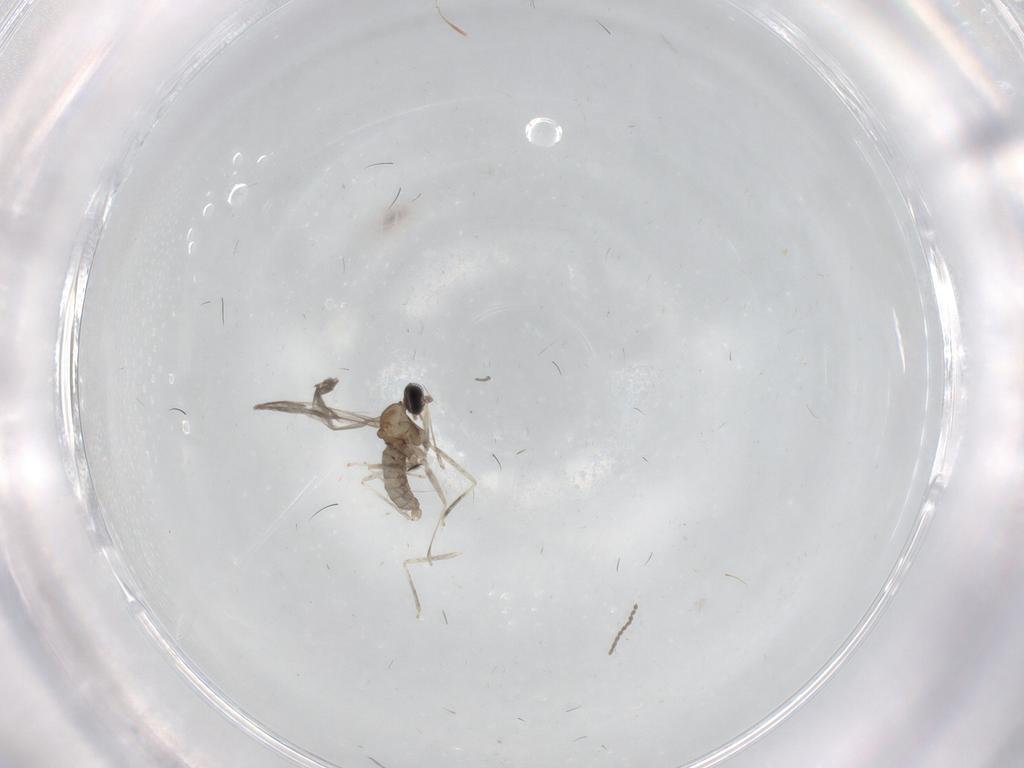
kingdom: Animalia
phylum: Arthropoda
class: Insecta
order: Diptera
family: Cecidomyiidae
